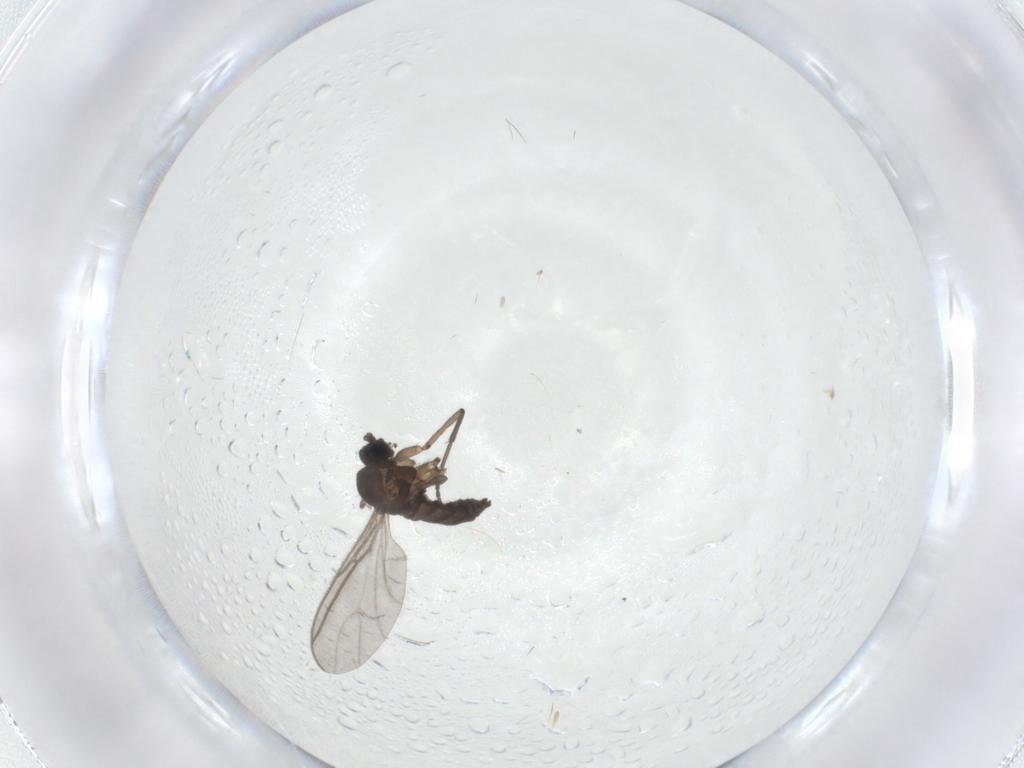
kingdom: Animalia
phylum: Arthropoda
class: Insecta
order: Diptera
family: Sciaridae
